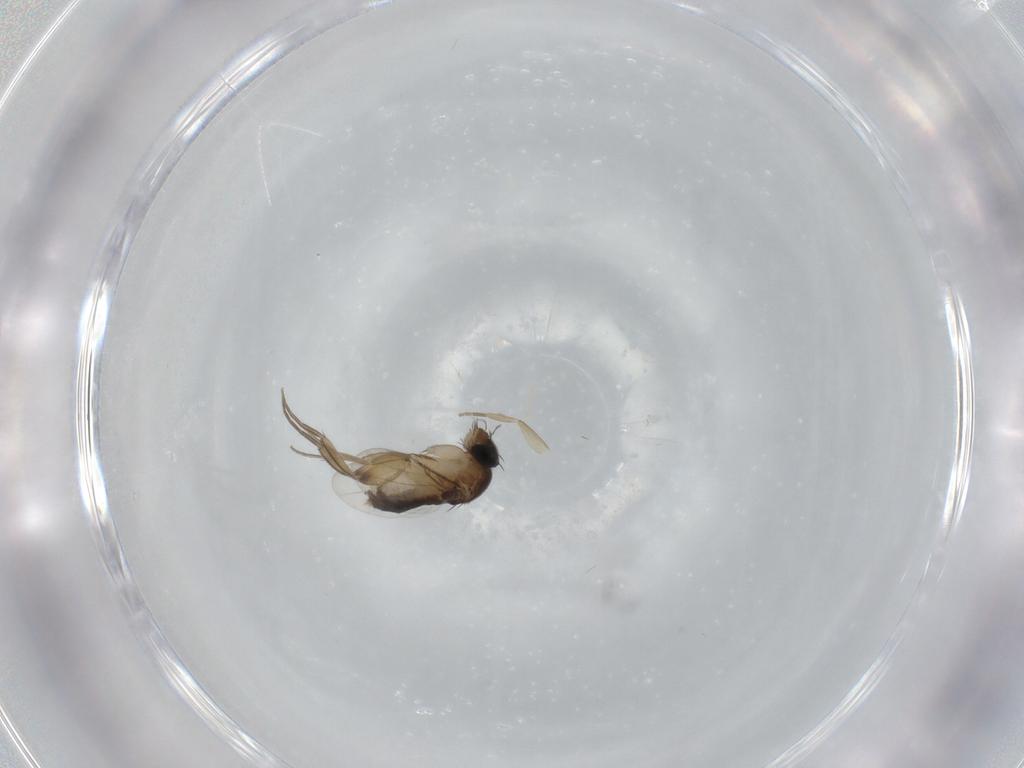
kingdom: Animalia
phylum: Arthropoda
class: Insecta
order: Diptera
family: Phoridae
